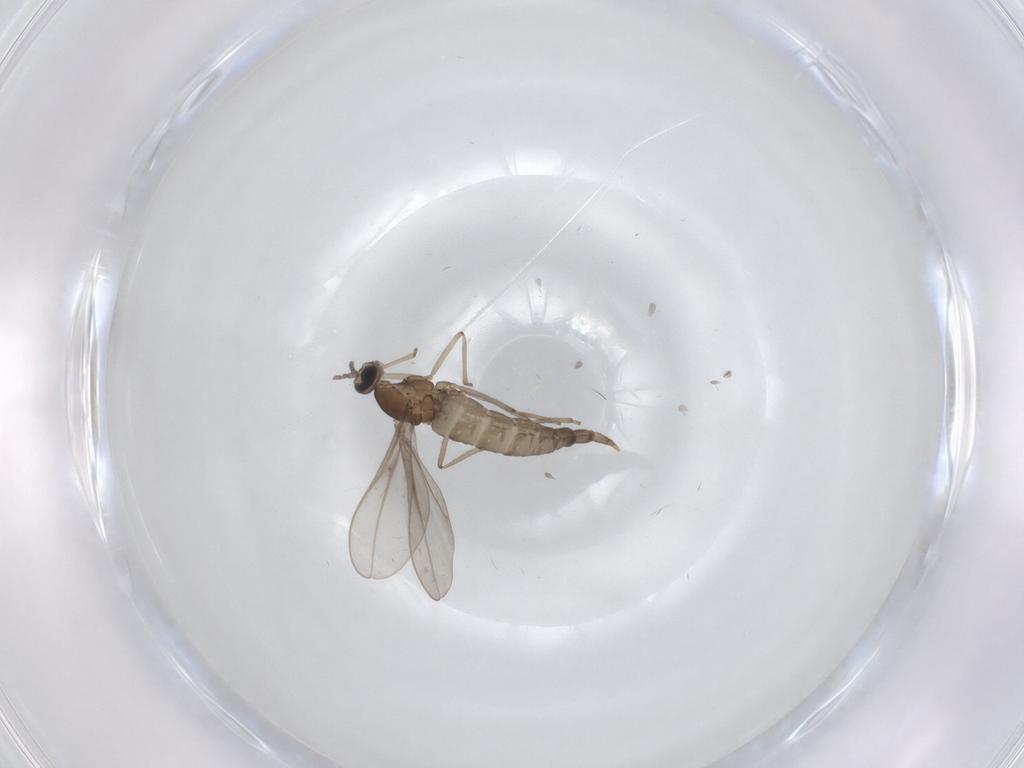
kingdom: Animalia
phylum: Arthropoda
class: Insecta
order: Diptera
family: Cecidomyiidae
